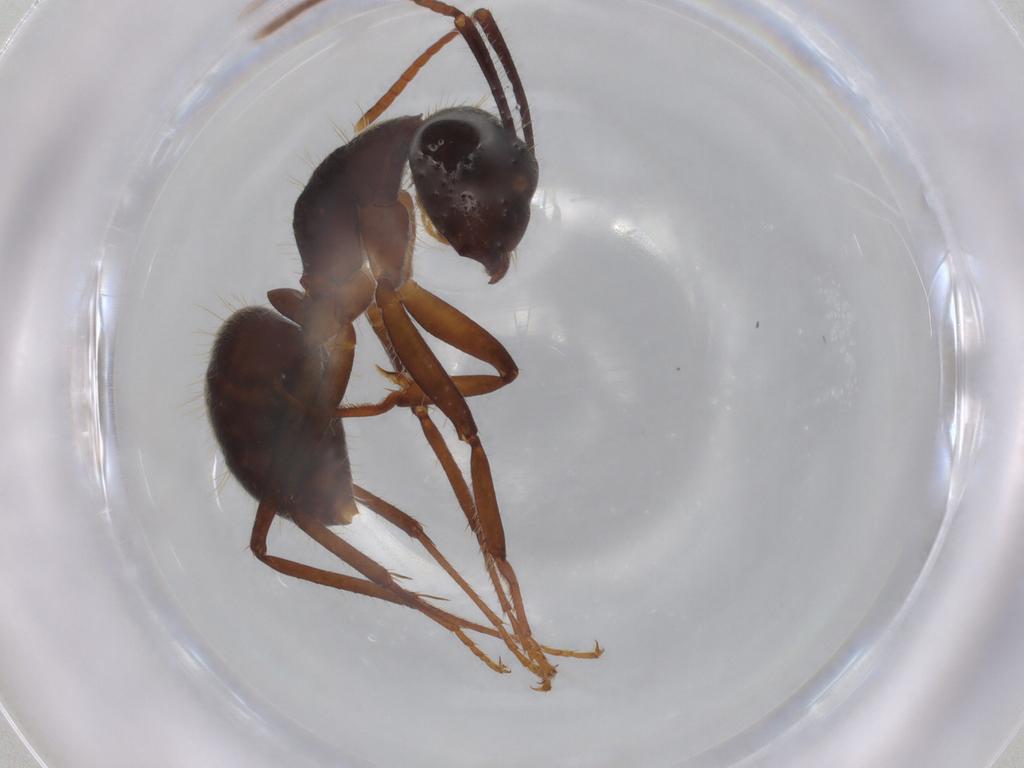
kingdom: Animalia
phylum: Arthropoda
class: Insecta
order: Hymenoptera
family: Formicidae
